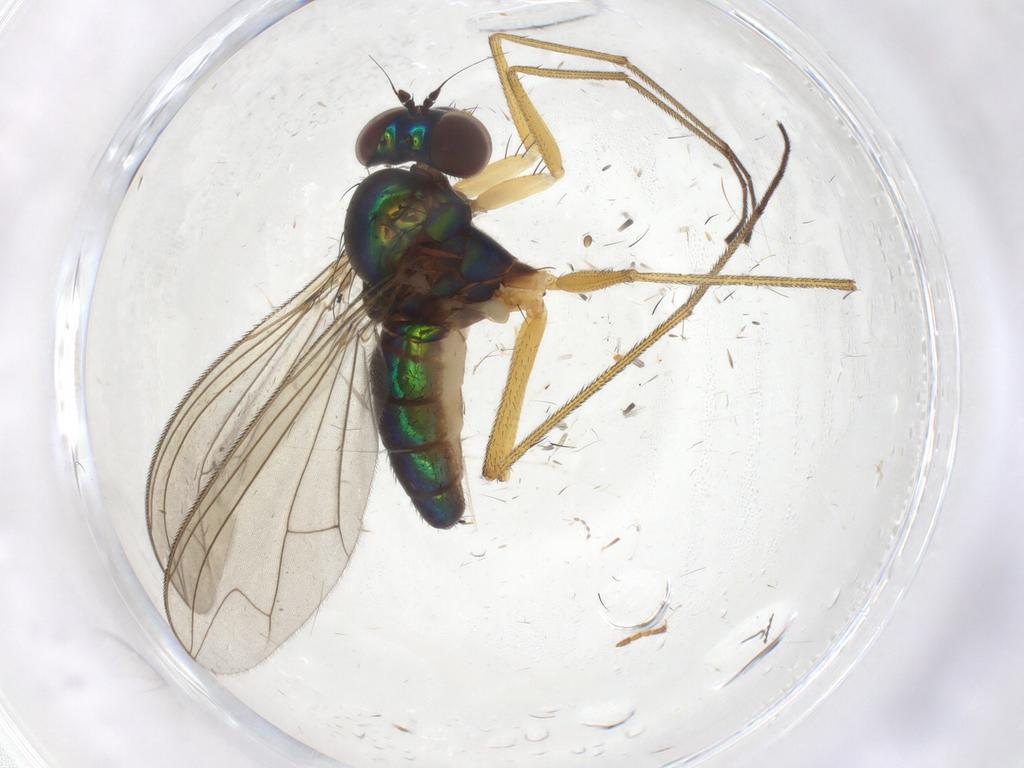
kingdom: Animalia
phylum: Arthropoda
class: Insecta
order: Diptera
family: Dolichopodidae
